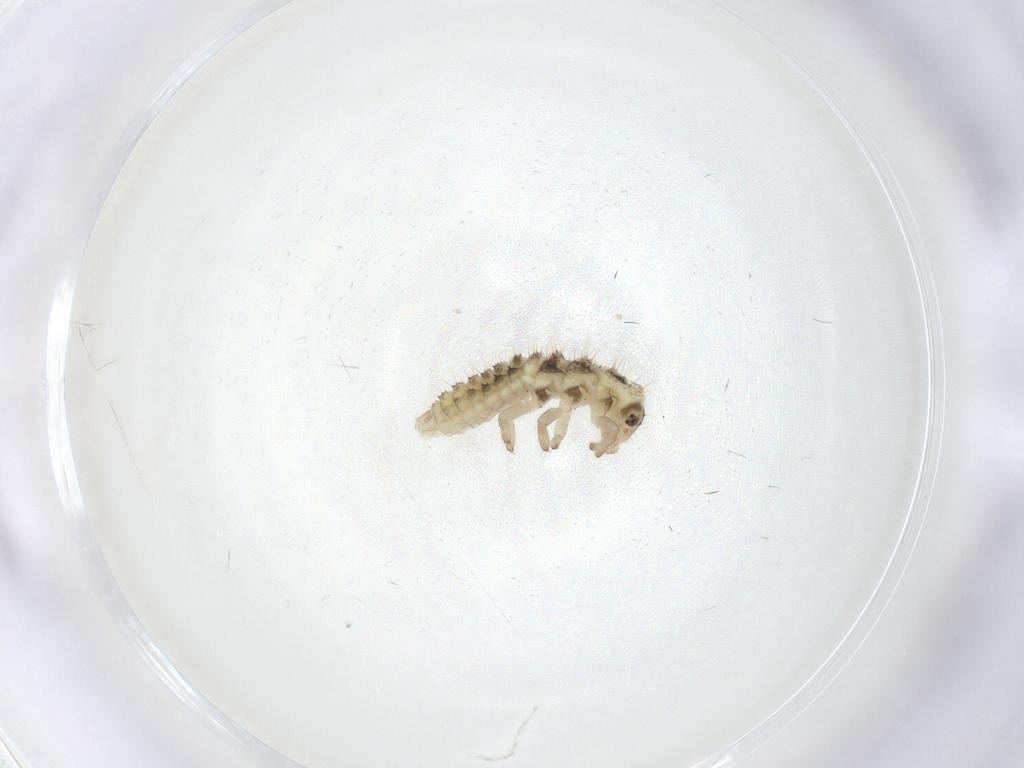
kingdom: Animalia
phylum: Arthropoda
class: Insecta
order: Coleoptera
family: Coccinellidae
